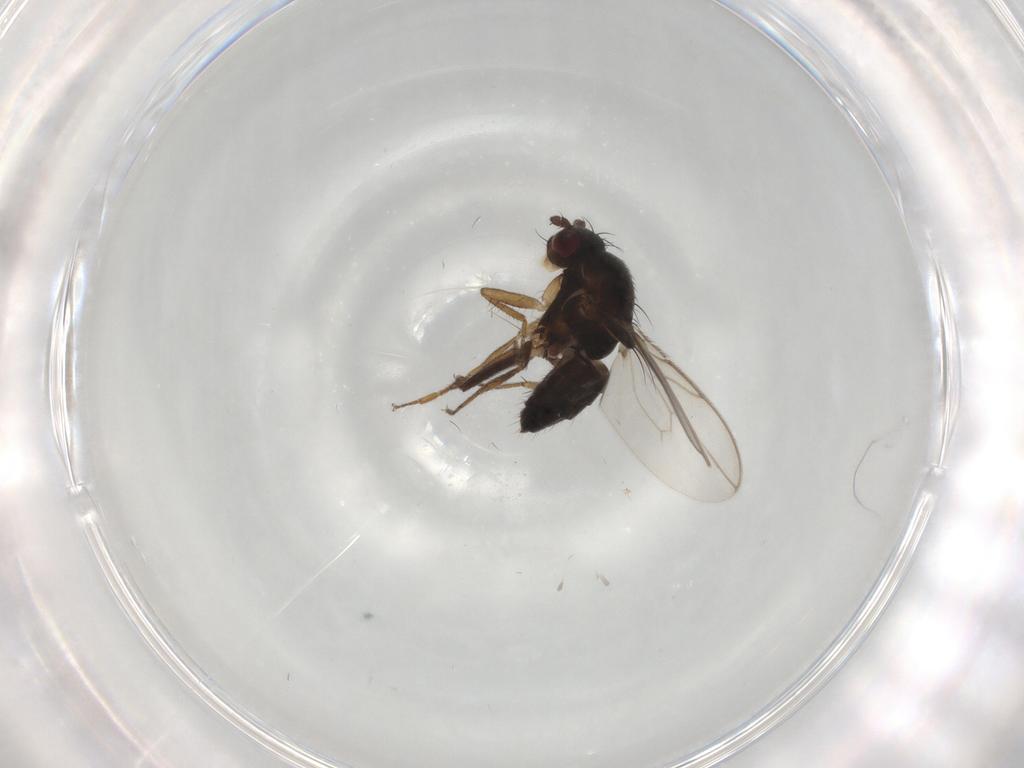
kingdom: Animalia
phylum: Arthropoda
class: Insecta
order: Diptera
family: Sphaeroceridae
